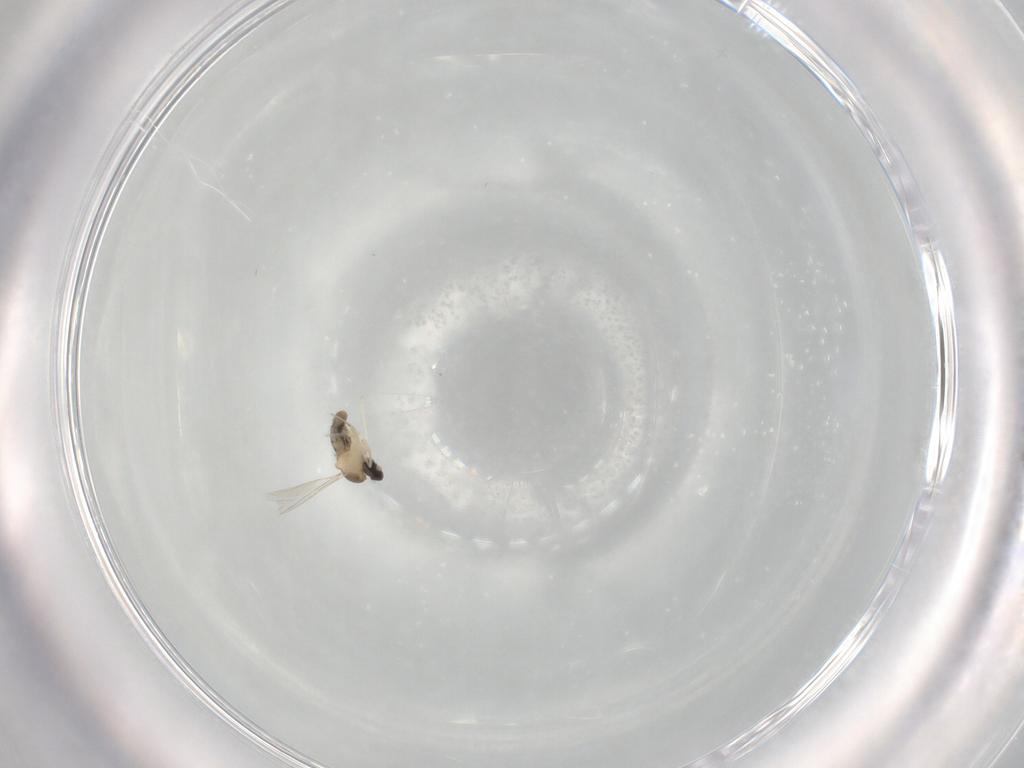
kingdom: Animalia
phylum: Arthropoda
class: Insecta
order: Diptera
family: Cecidomyiidae
